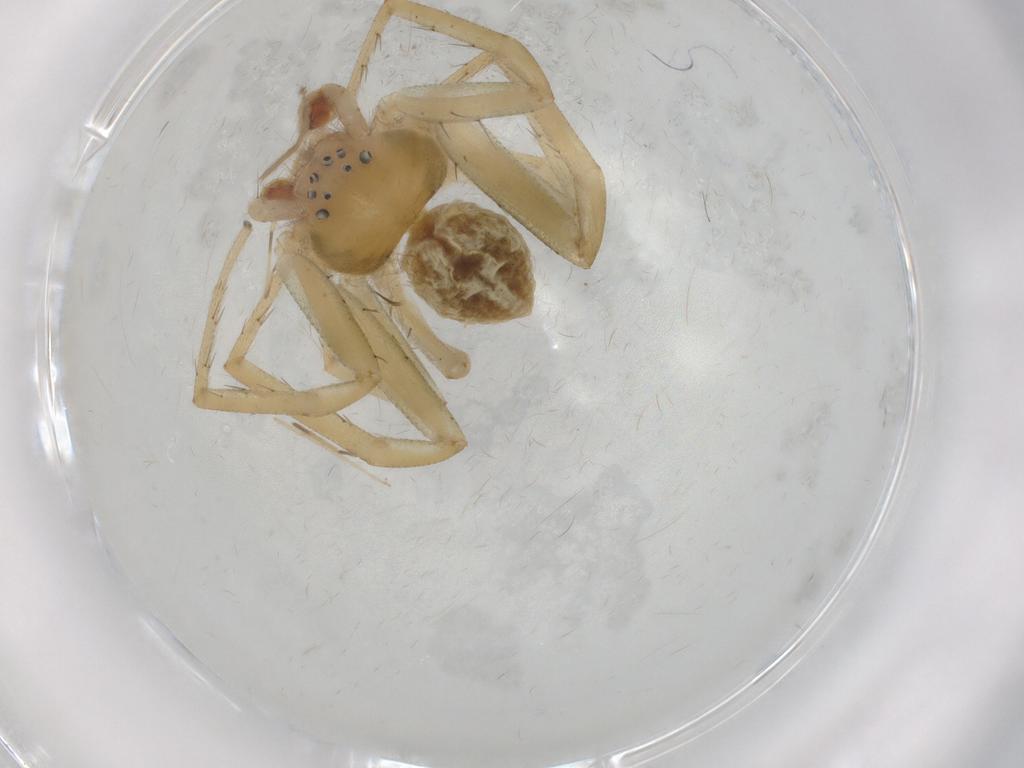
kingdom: Animalia
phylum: Arthropoda
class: Arachnida
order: Araneae
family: Philodromidae
